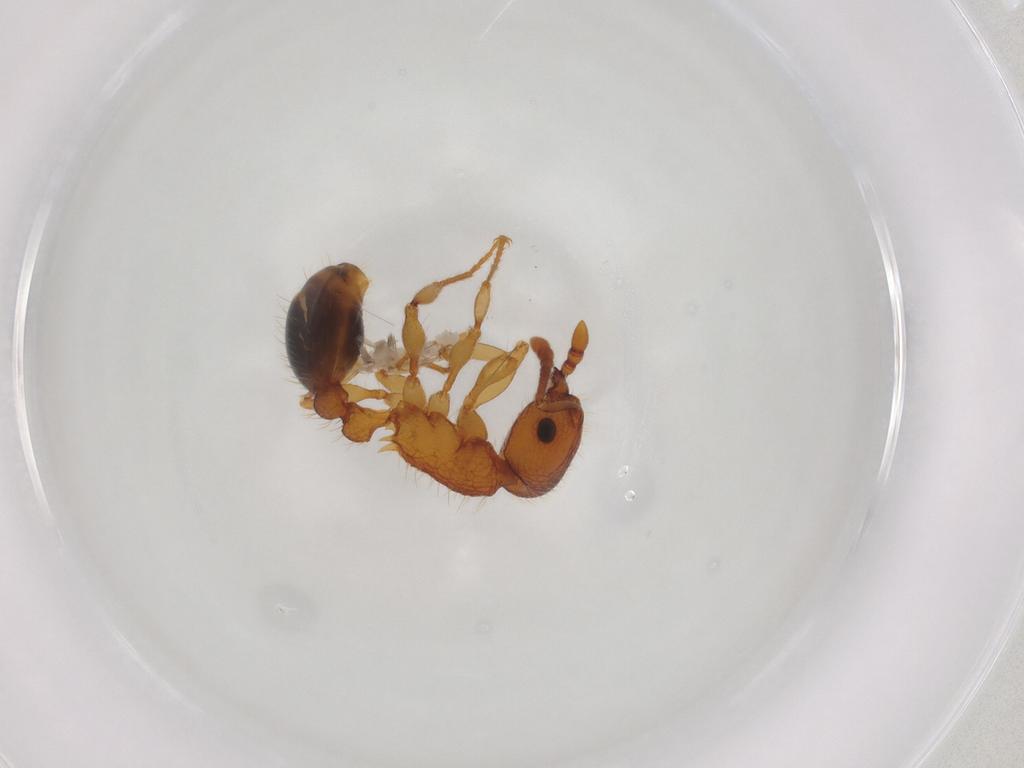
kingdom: Animalia
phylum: Arthropoda
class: Insecta
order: Hymenoptera
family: Formicidae
